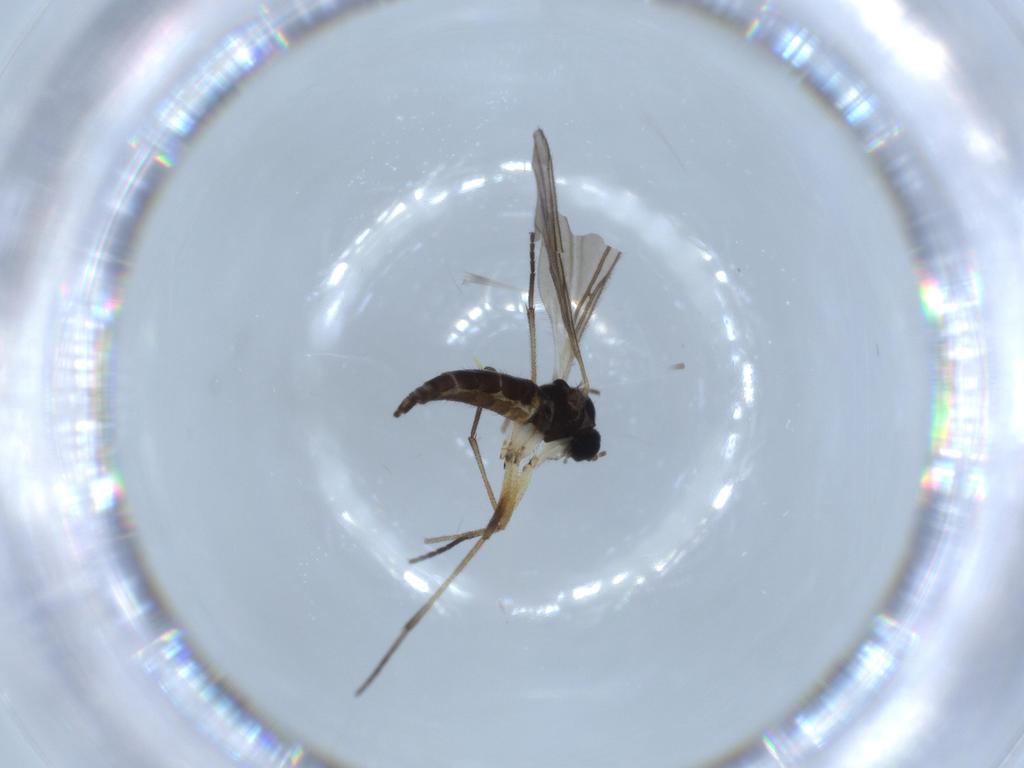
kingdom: Animalia
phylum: Arthropoda
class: Insecta
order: Diptera
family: Sciaridae
